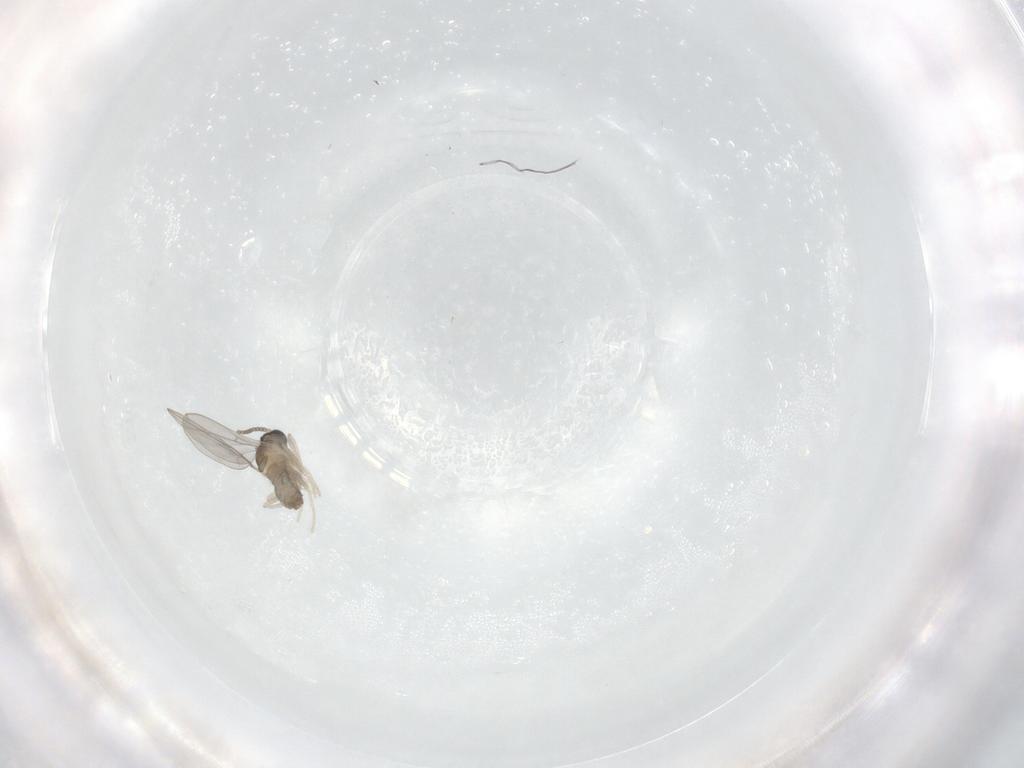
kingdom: Animalia
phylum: Arthropoda
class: Insecta
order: Diptera
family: Cecidomyiidae
